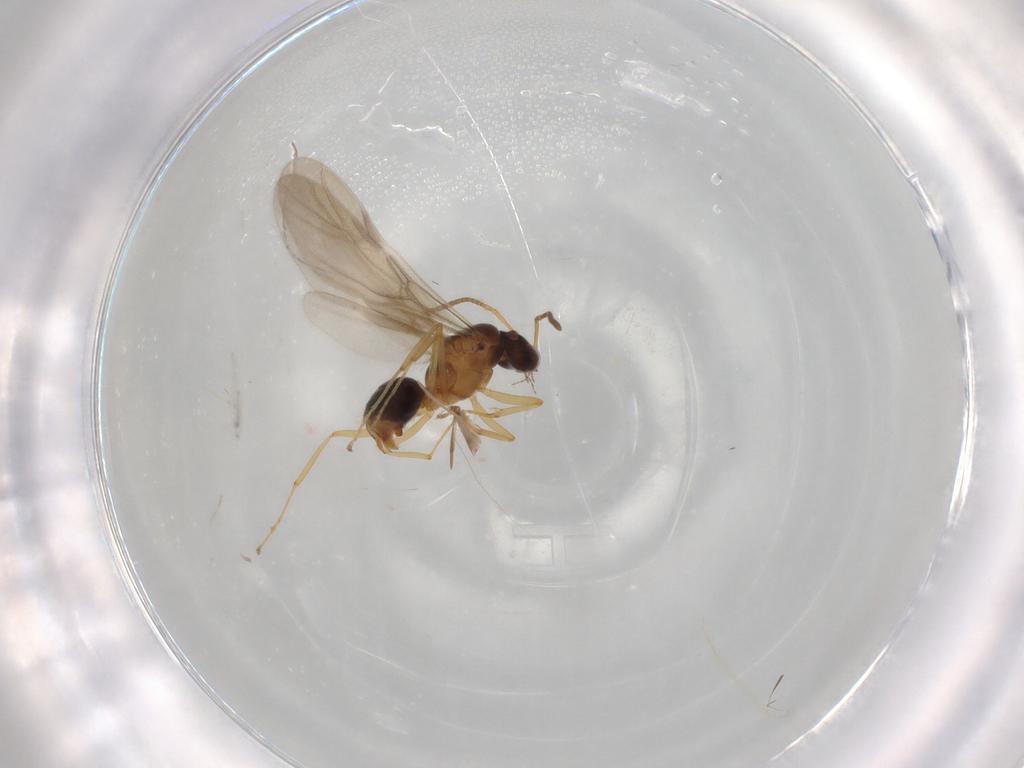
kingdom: Animalia
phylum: Arthropoda
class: Insecta
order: Hymenoptera
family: Formicidae
